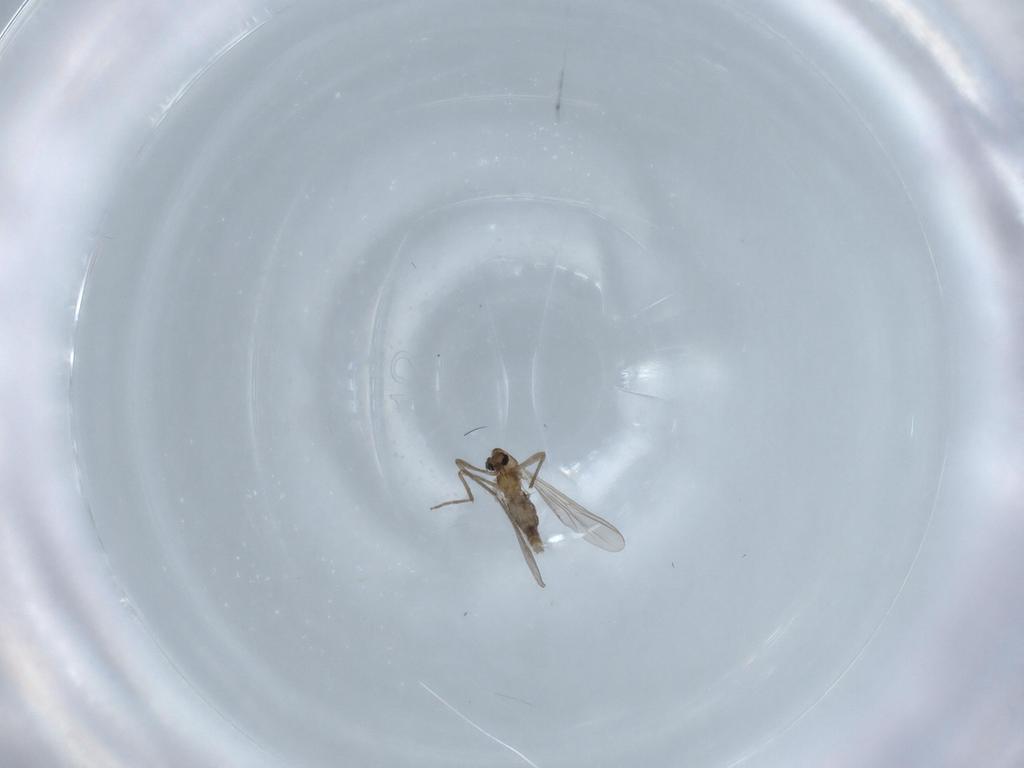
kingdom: Animalia
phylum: Arthropoda
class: Insecta
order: Diptera
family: Chironomidae
